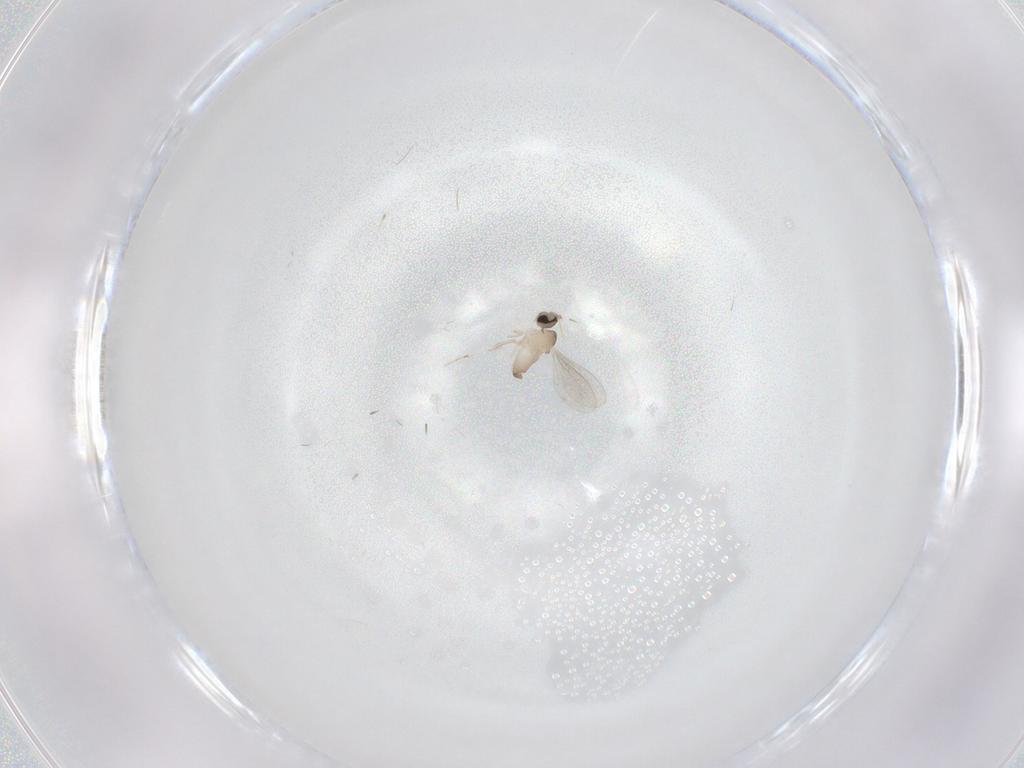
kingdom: Animalia
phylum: Arthropoda
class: Insecta
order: Diptera
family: Cecidomyiidae
